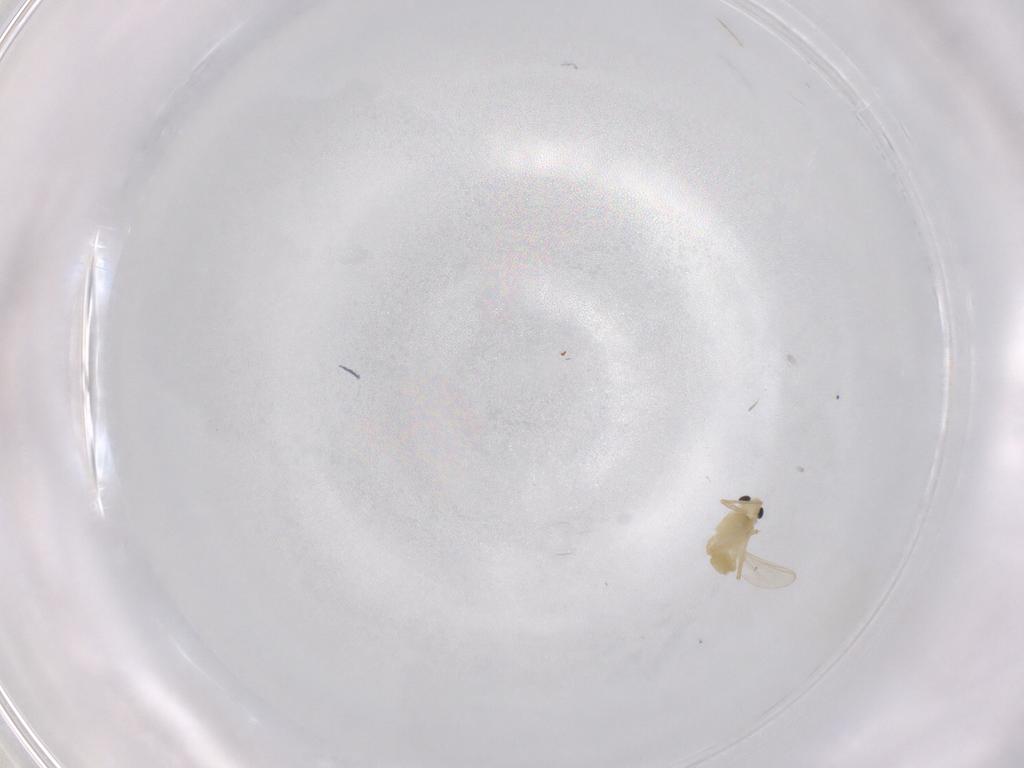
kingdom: Animalia
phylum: Arthropoda
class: Insecta
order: Diptera
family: Chironomidae
